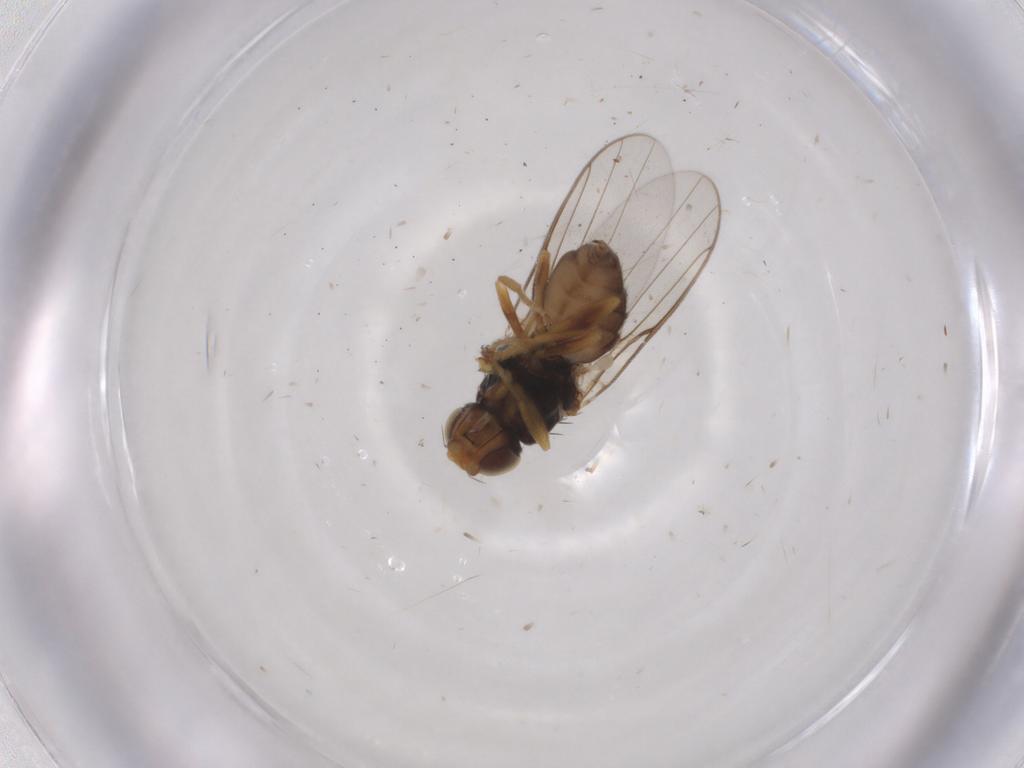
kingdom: Animalia
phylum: Arthropoda
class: Insecta
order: Diptera
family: Chloropidae
